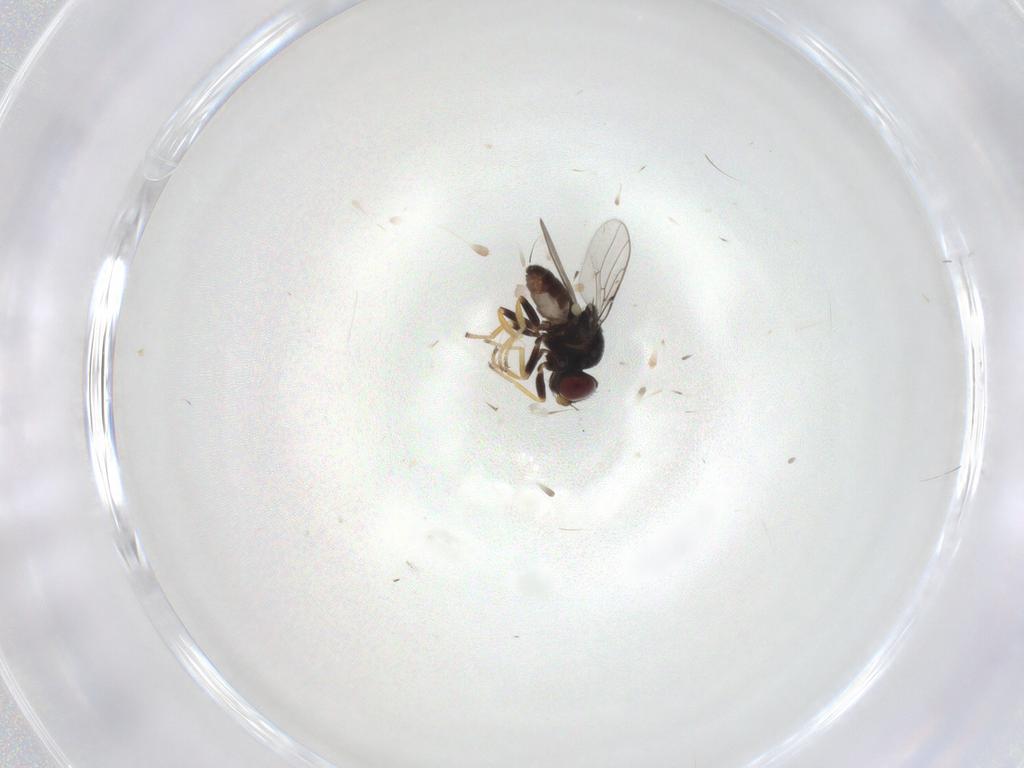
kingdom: Animalia
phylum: Arthropoda
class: Insecta
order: Diptera
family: Chloropidae
